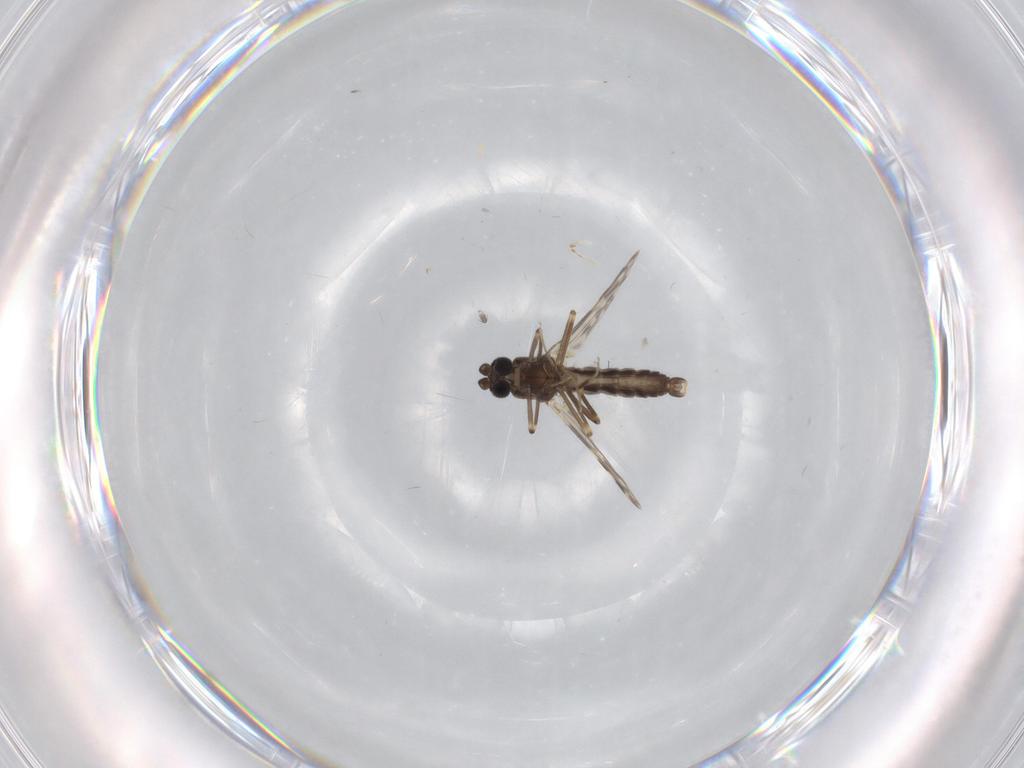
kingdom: Animalia
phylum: Arthropoda
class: Insecta
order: Diptera
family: Ceratopogonidae
